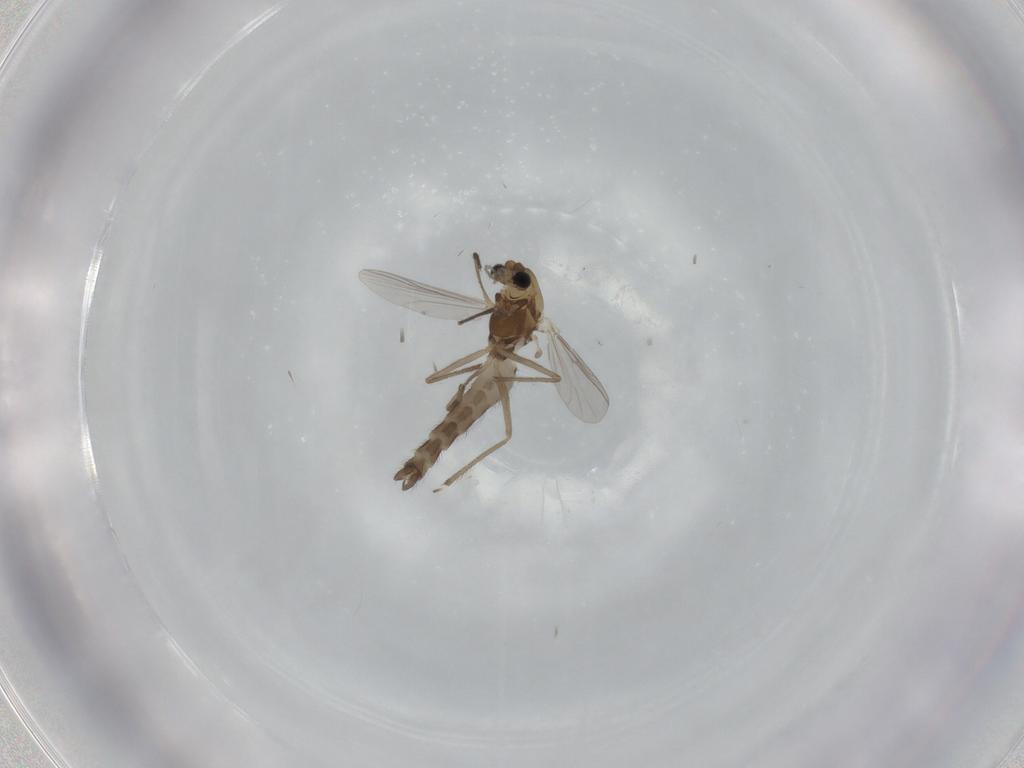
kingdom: Animalia
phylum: Arthropoda
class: Insecta
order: Diptera
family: Chironomidae
